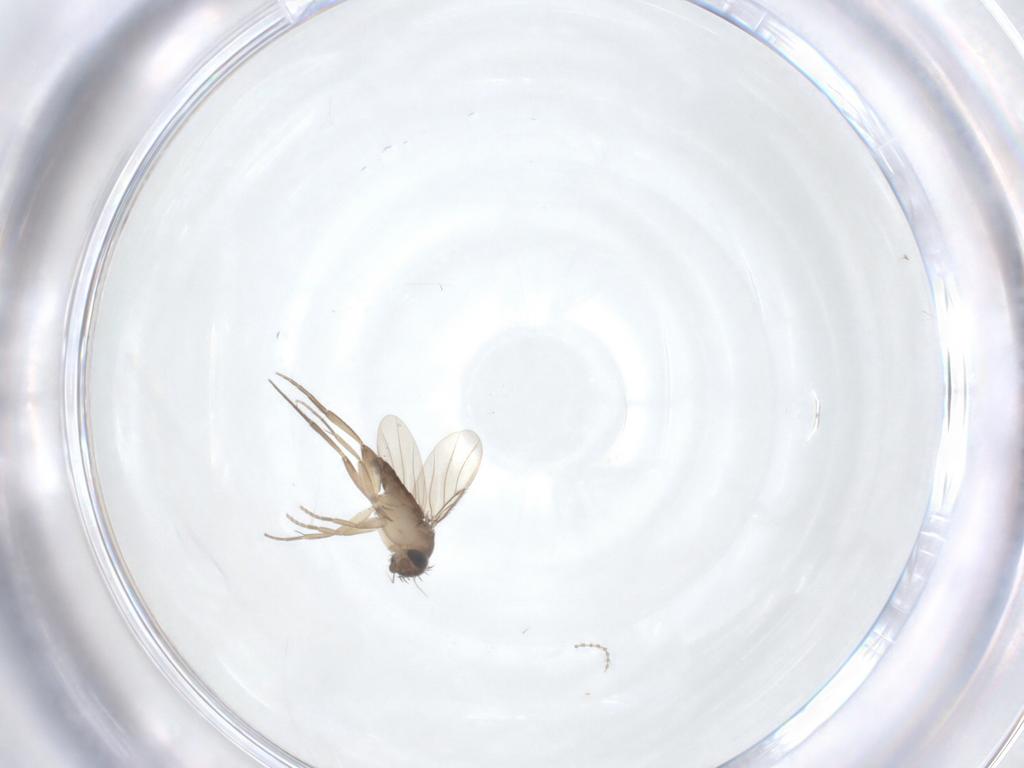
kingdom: Animalia
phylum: Arthropoda
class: Insecta
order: Diptera
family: Phoridae
